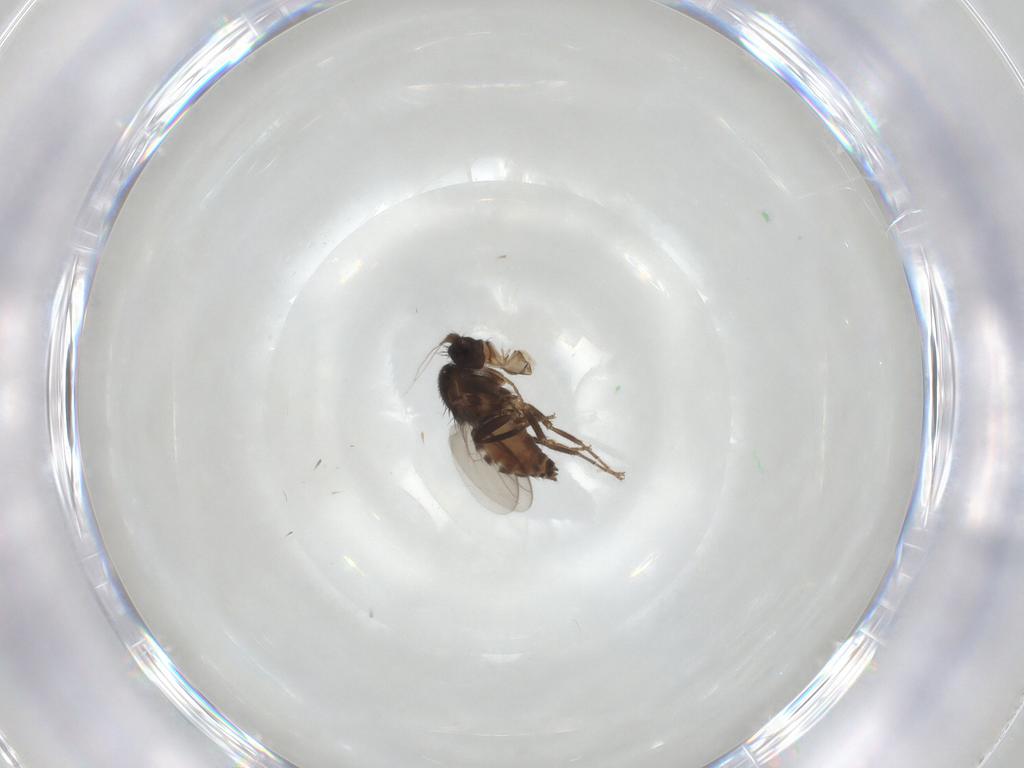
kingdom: Animalia
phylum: Arthropoda
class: Insecta
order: Diptera
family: Sphaeroceridae
